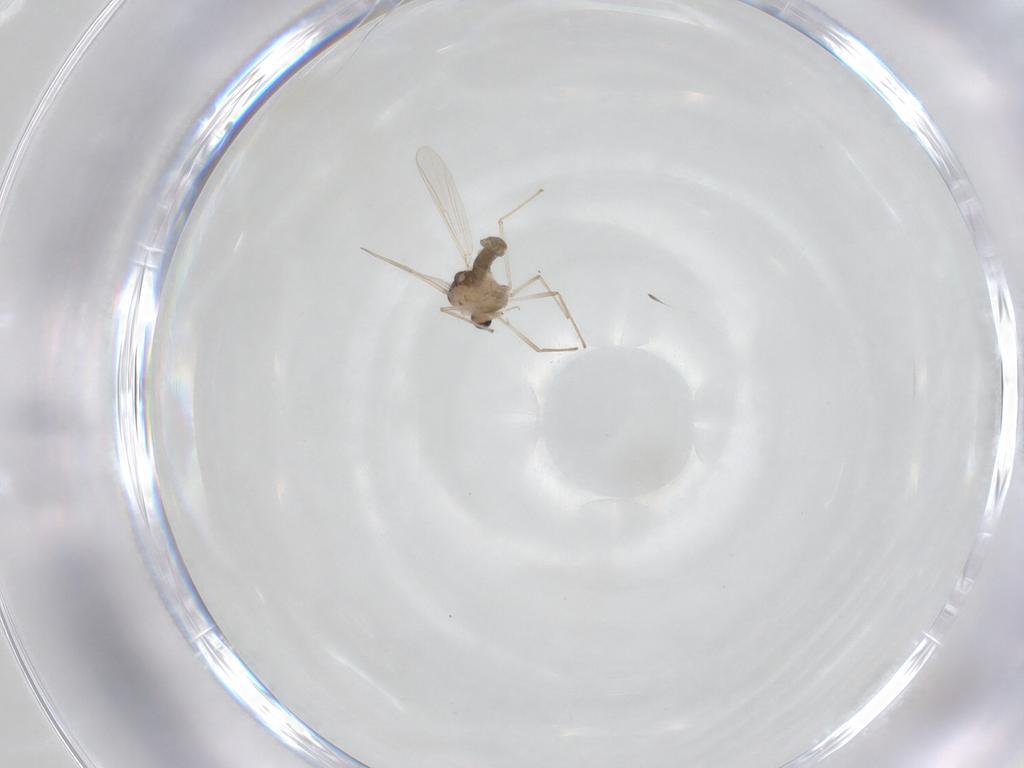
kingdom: Animalia
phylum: Arthropoda
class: Insecta
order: Diptera
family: Chironomidae
